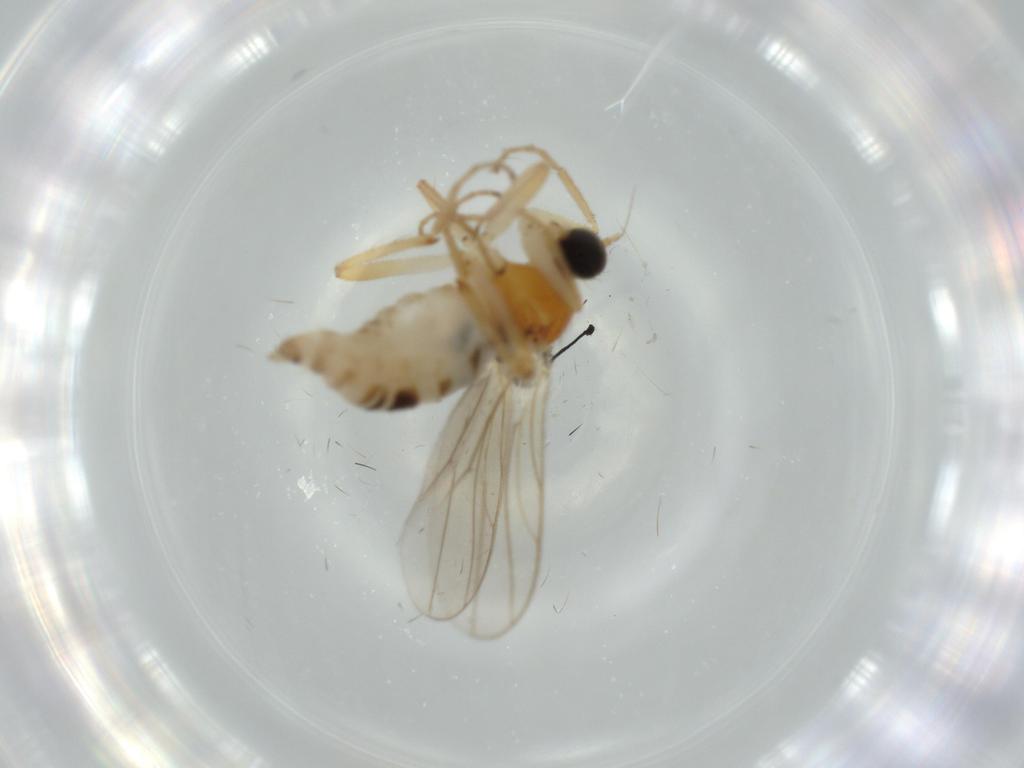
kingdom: Animalia
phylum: Arthropoda
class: Insecta
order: Diptera
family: Hybotidae
